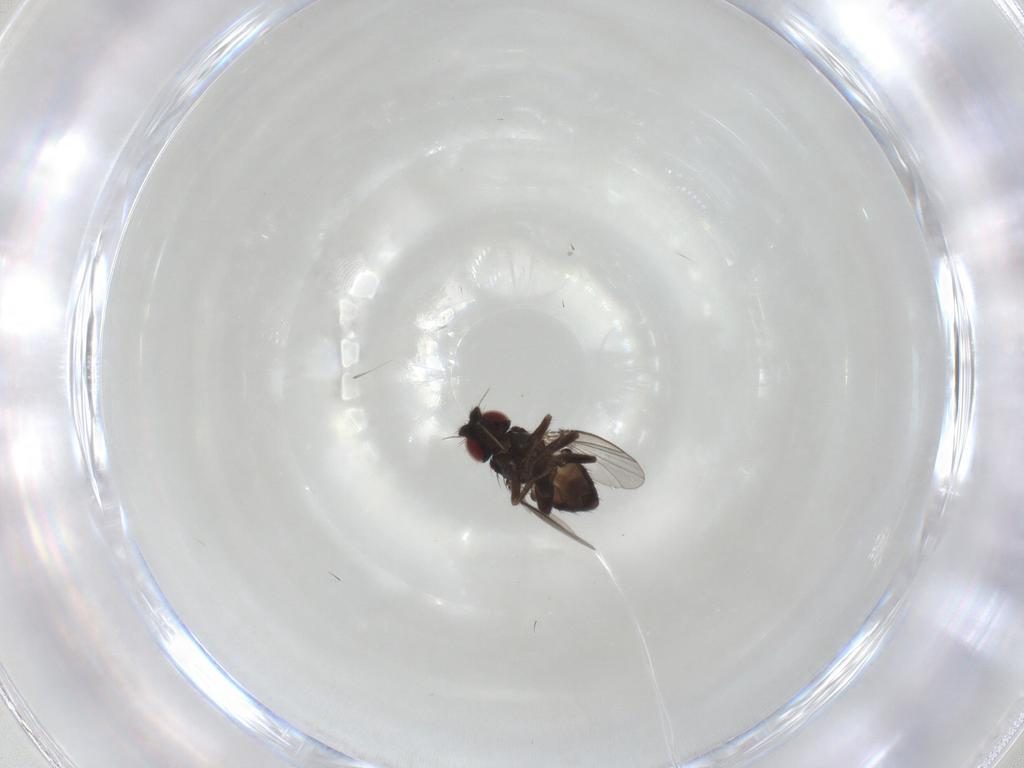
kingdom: Animalia
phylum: Arthropoda
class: Insecta
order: Diptera
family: Milichiidae
